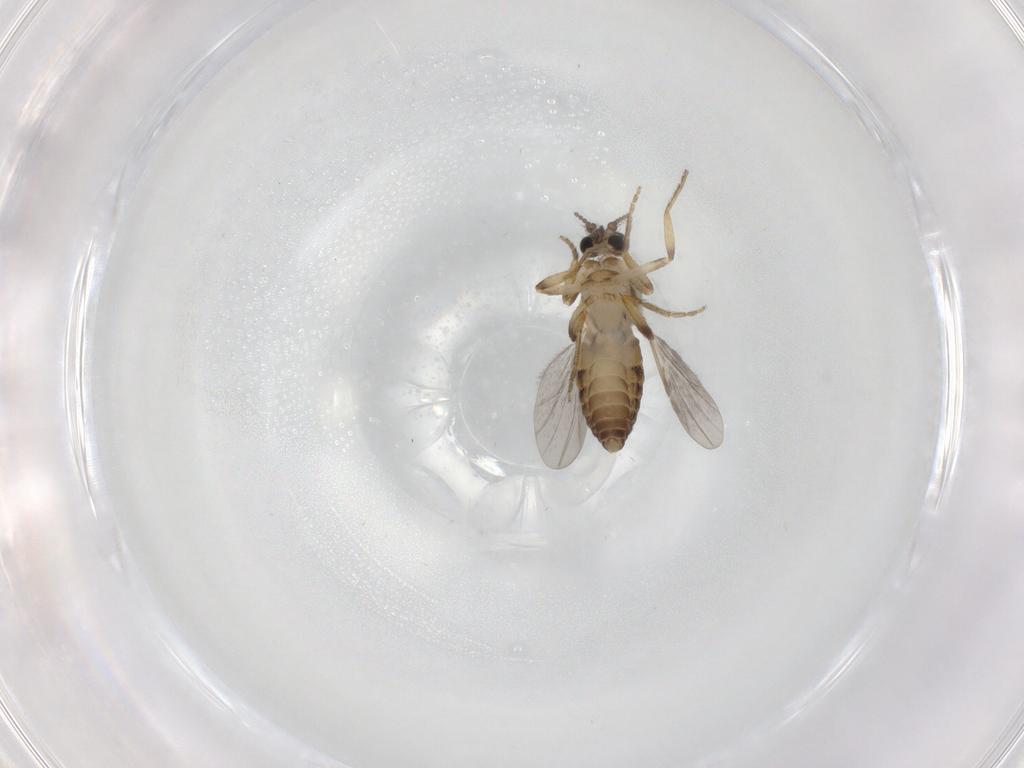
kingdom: Animalia
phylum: Arthropoda
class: Insecta
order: Diptera
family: Ceratopogonidae
